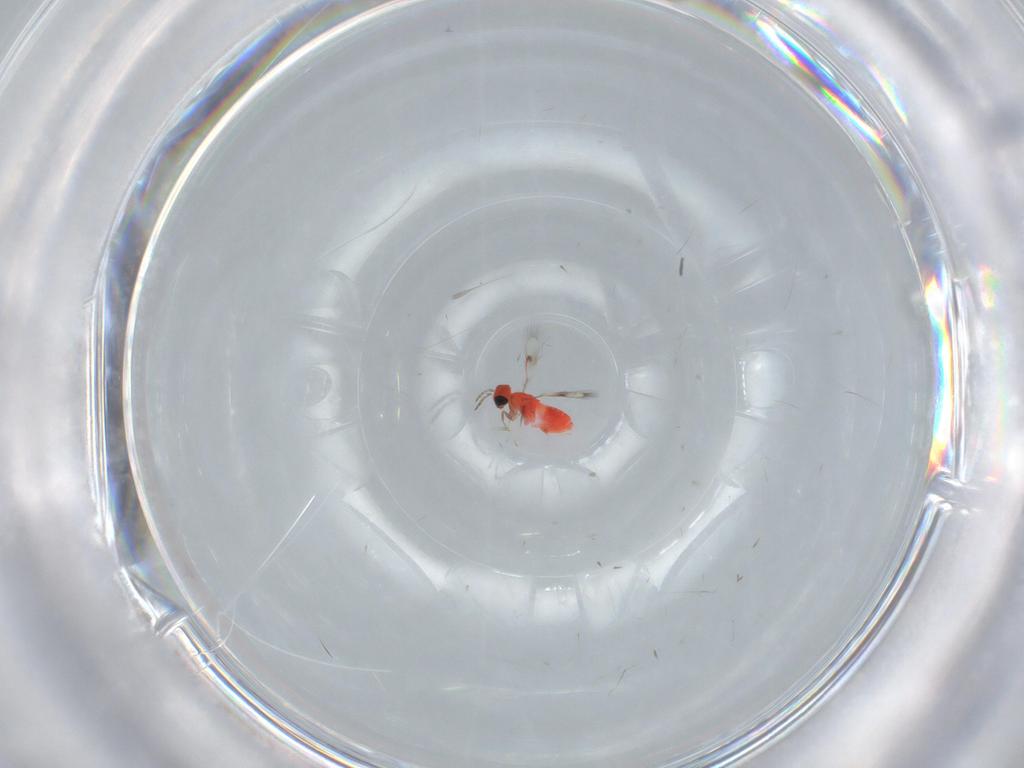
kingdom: Animalia
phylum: Arthropoda
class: Insecta
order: Hymenoptera
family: Trichogrammatidae
